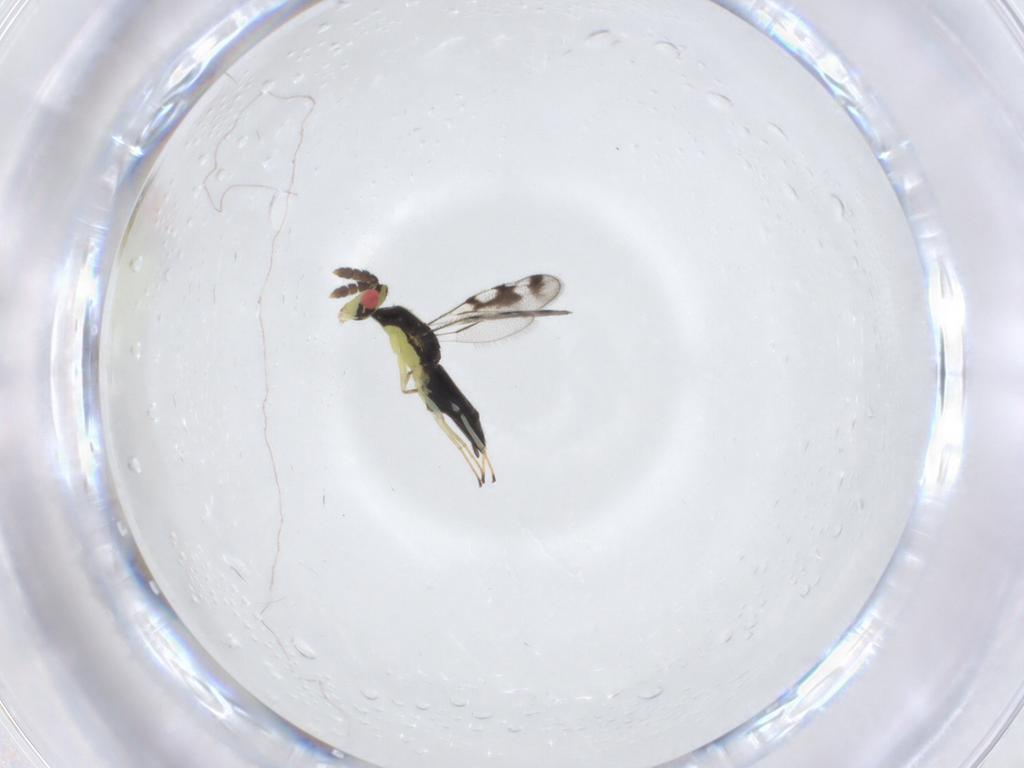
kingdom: Animalia
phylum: Arthropoda
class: Insecta
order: Hymenoptera
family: Eulophidae
